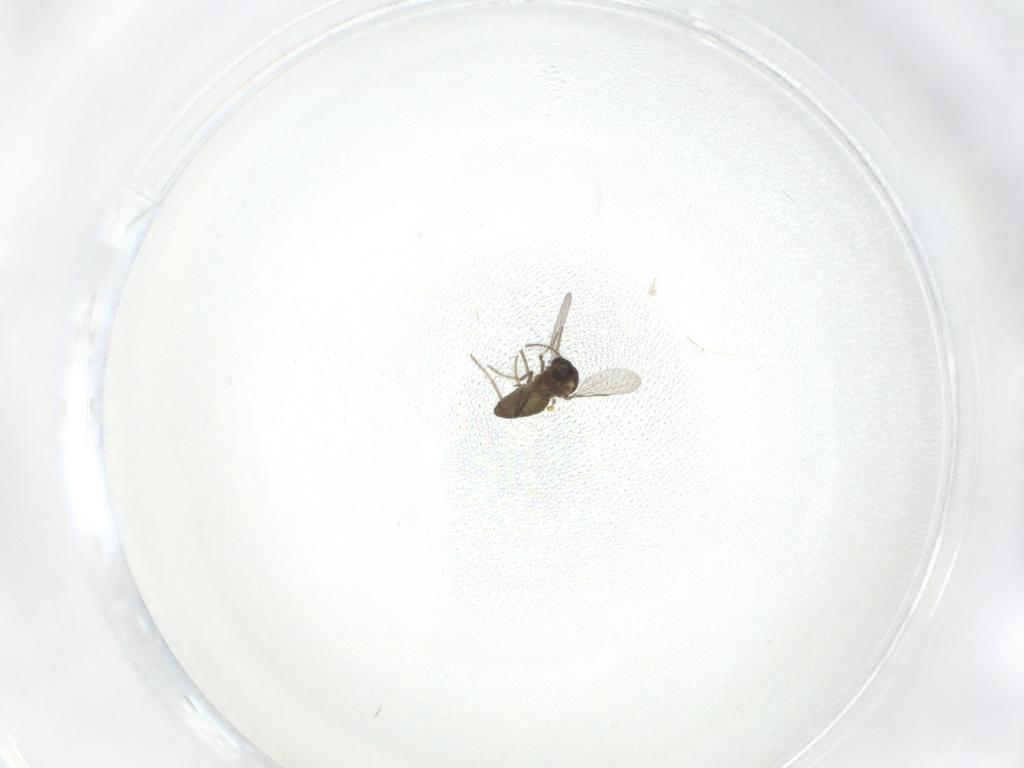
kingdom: Animalia
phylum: Arthropoda
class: Insecta
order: Diptera
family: Ceratopogonidae
